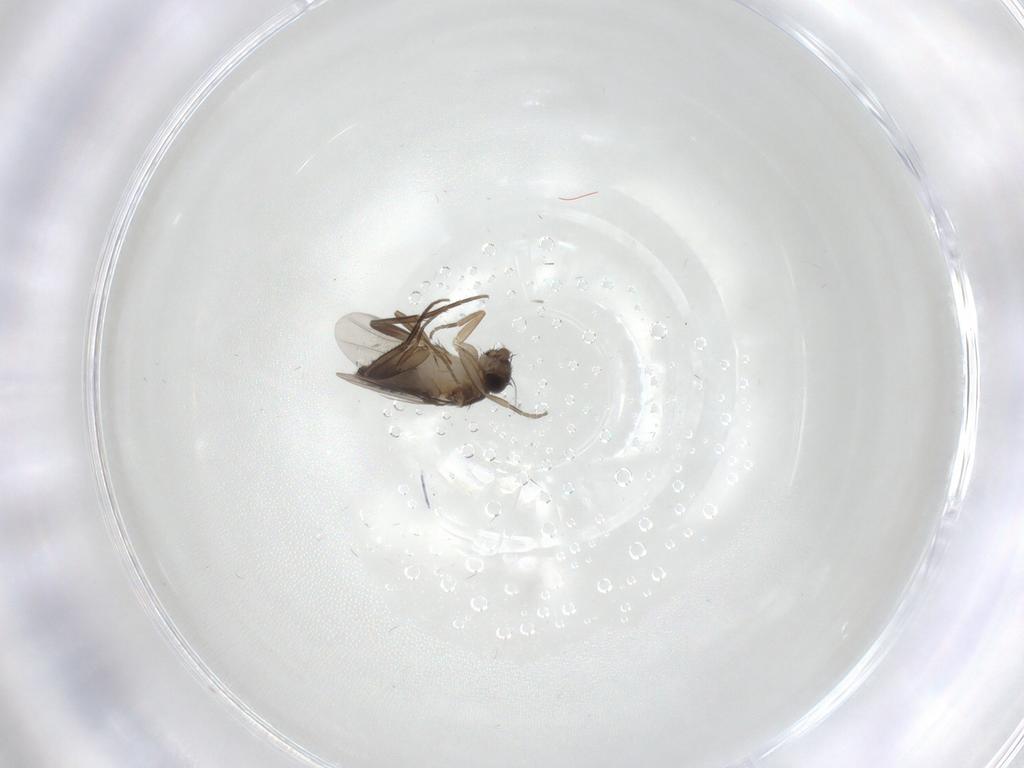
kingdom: Animalia
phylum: Arthropoda
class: Insecta
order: Diptera
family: Phoridae
